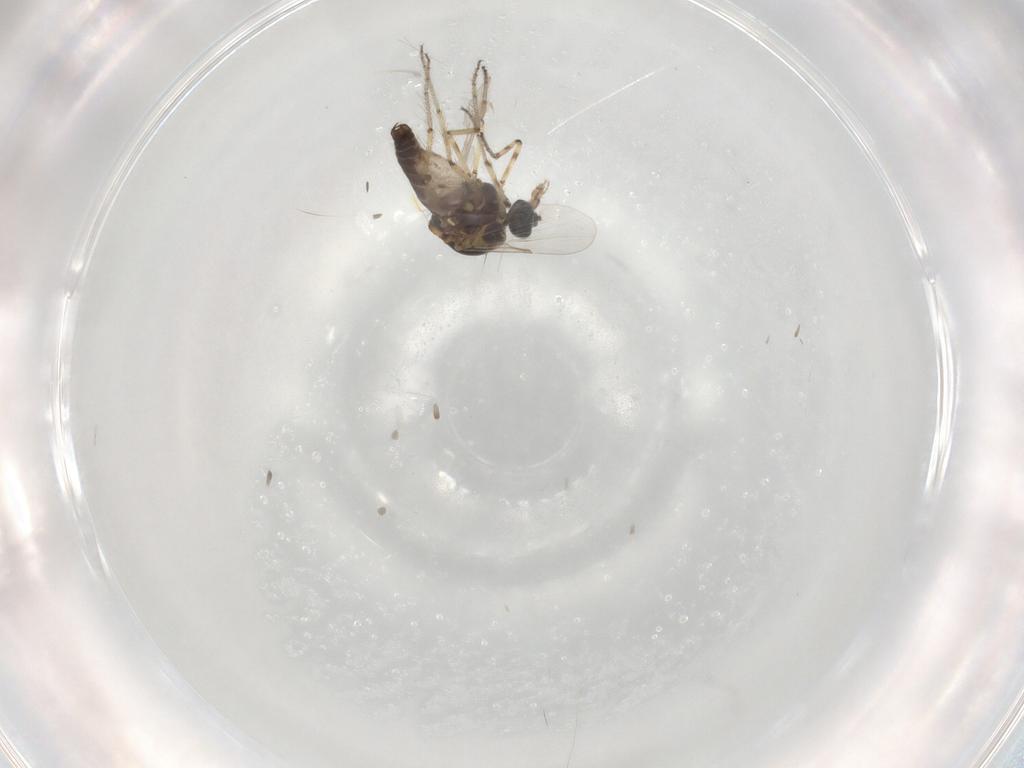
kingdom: Animalia
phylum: Arthropoda
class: Insecta
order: Diptera
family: Ceratopogonidae
